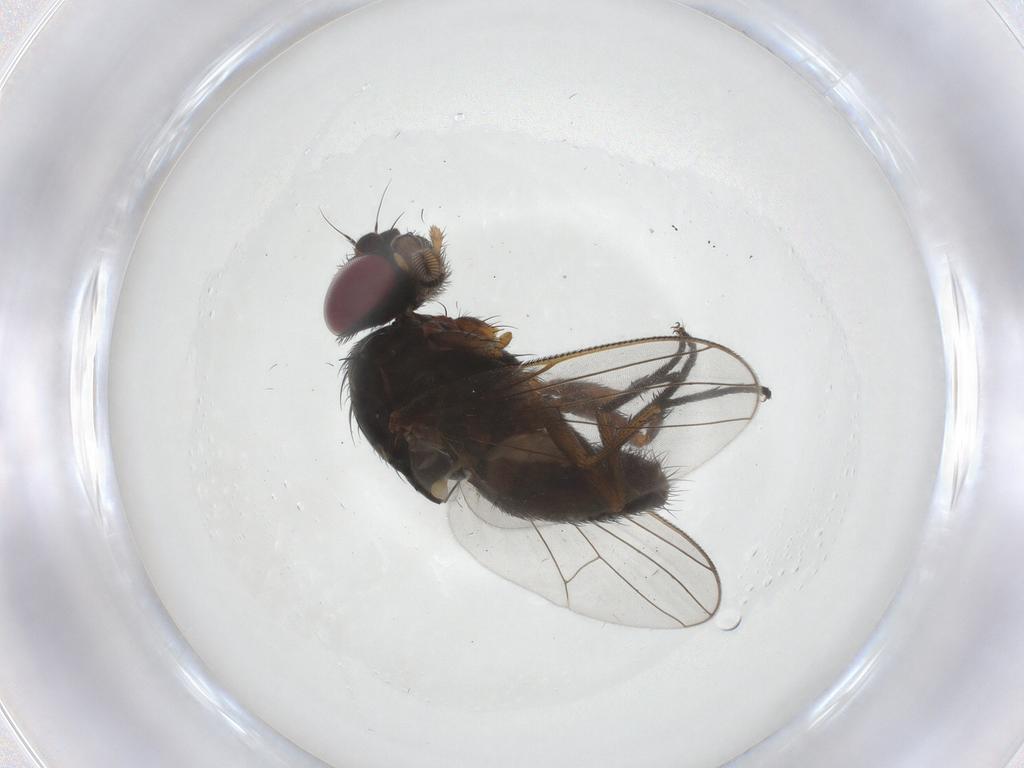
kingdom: Animalia
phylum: Arthropoda
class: Insecta
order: Diptera
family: Fannia
